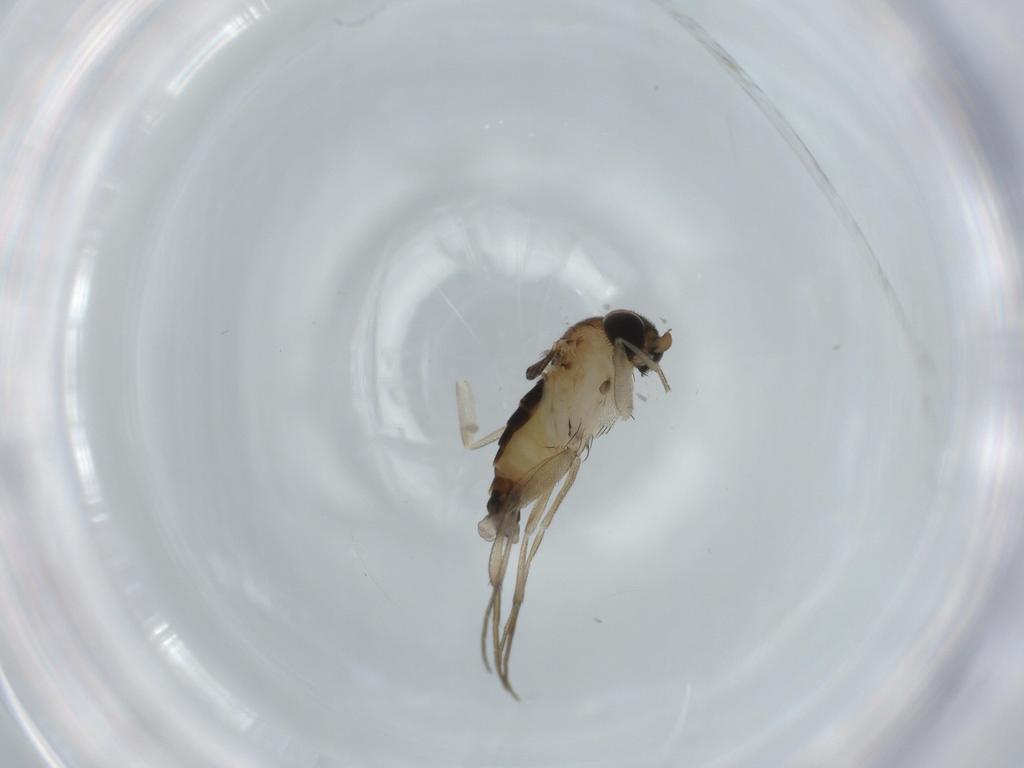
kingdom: Animalia
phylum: Arthropoda
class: Insecta
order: Diptera
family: Phoridae
